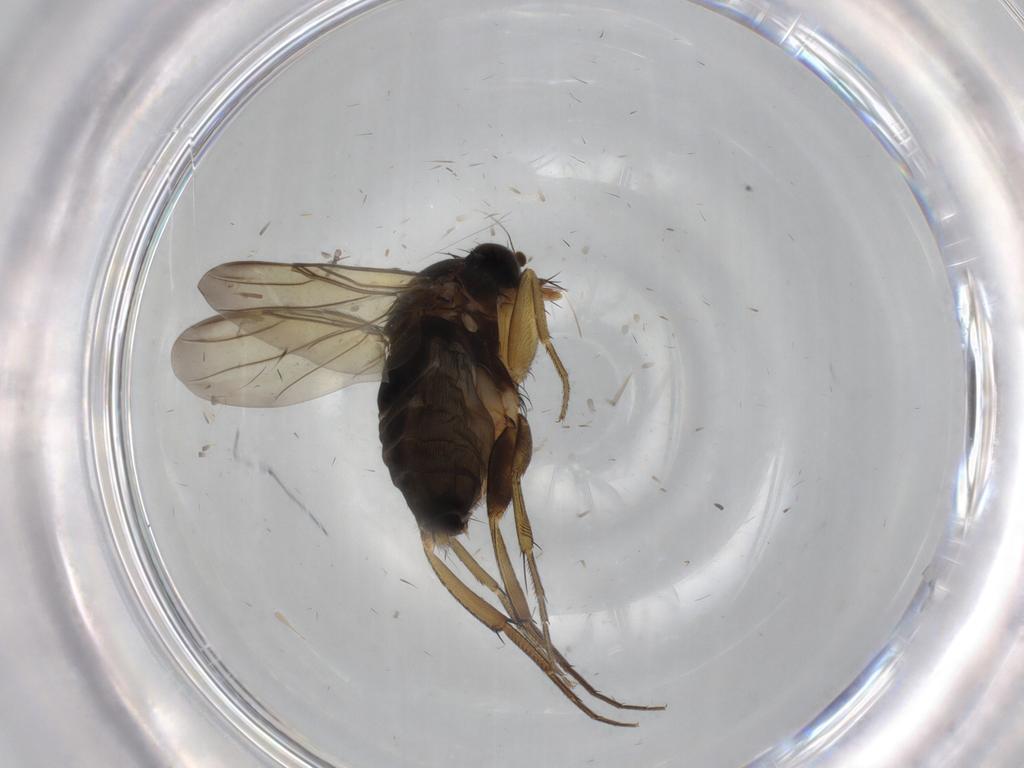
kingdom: Animalia
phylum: Arthropoda
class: Insecta
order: Diptera
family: Phoridae
